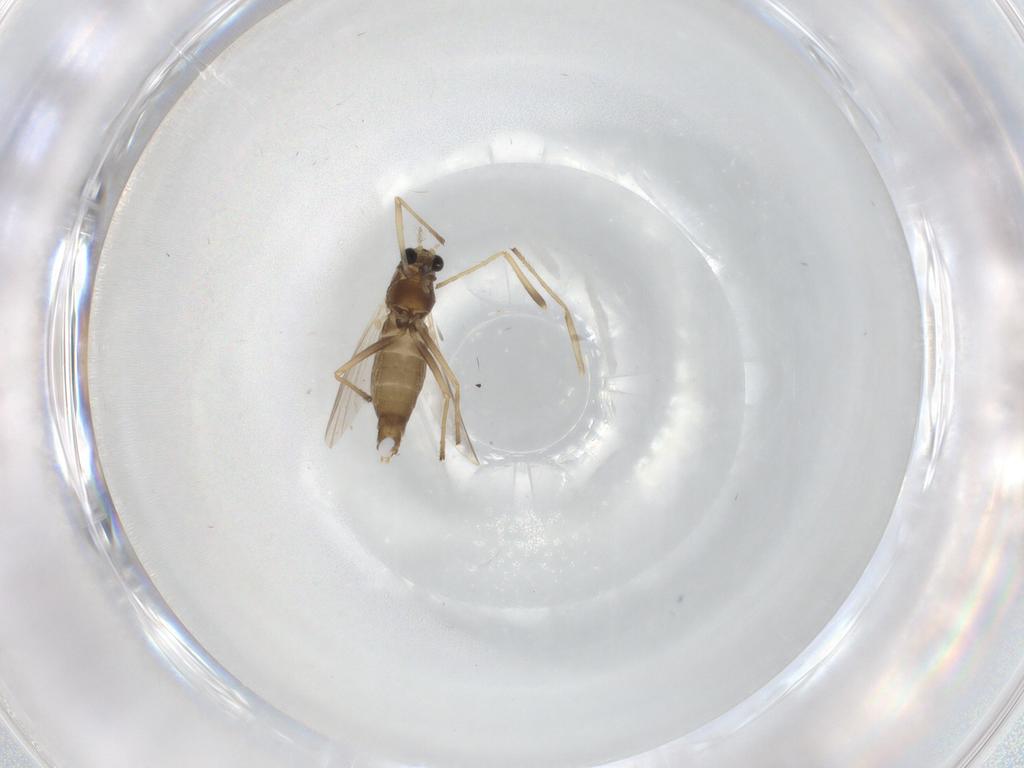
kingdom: Animalia
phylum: Arthropoda
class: Insecta
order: Diptera
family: Chironomidae
